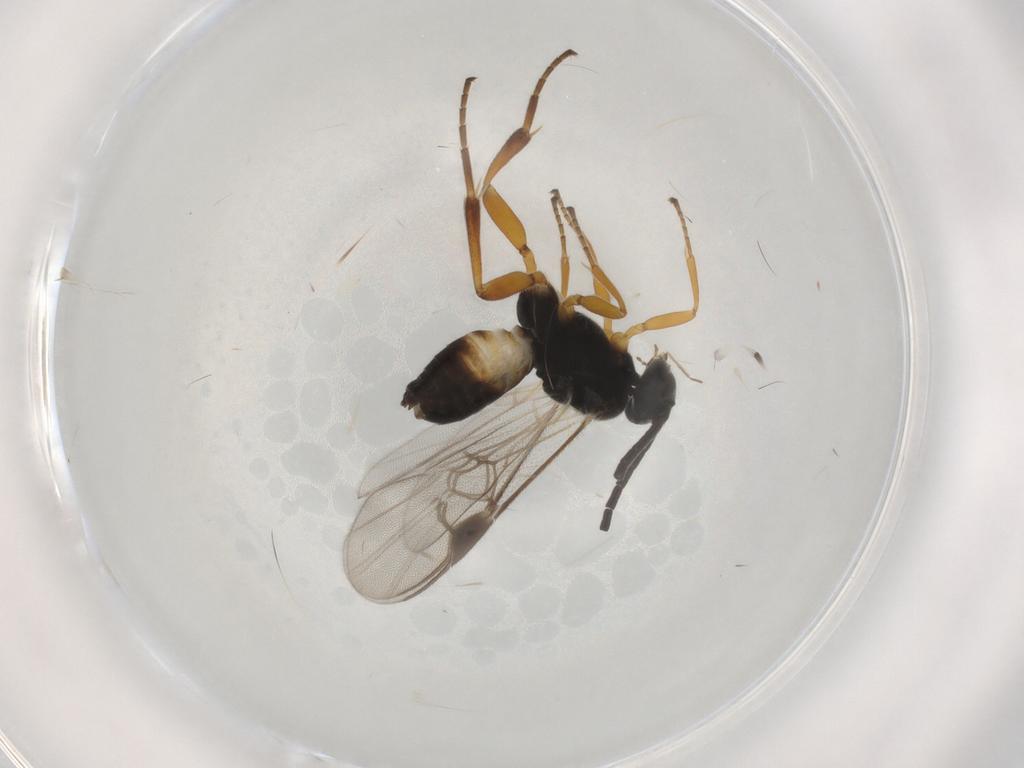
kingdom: Animalia
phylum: Arthropoda
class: Insecta
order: Hymenoptera
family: Braconidae
